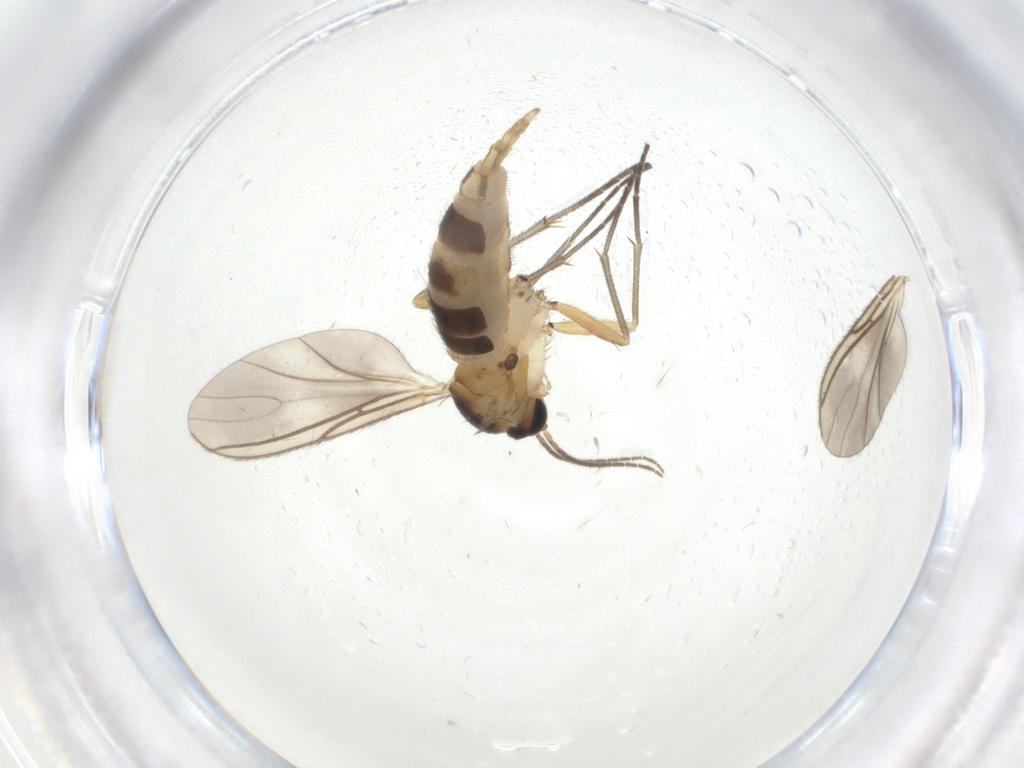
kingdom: Animalia
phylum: Arthropoda
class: Insecta
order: Diptera
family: Sciaridae
